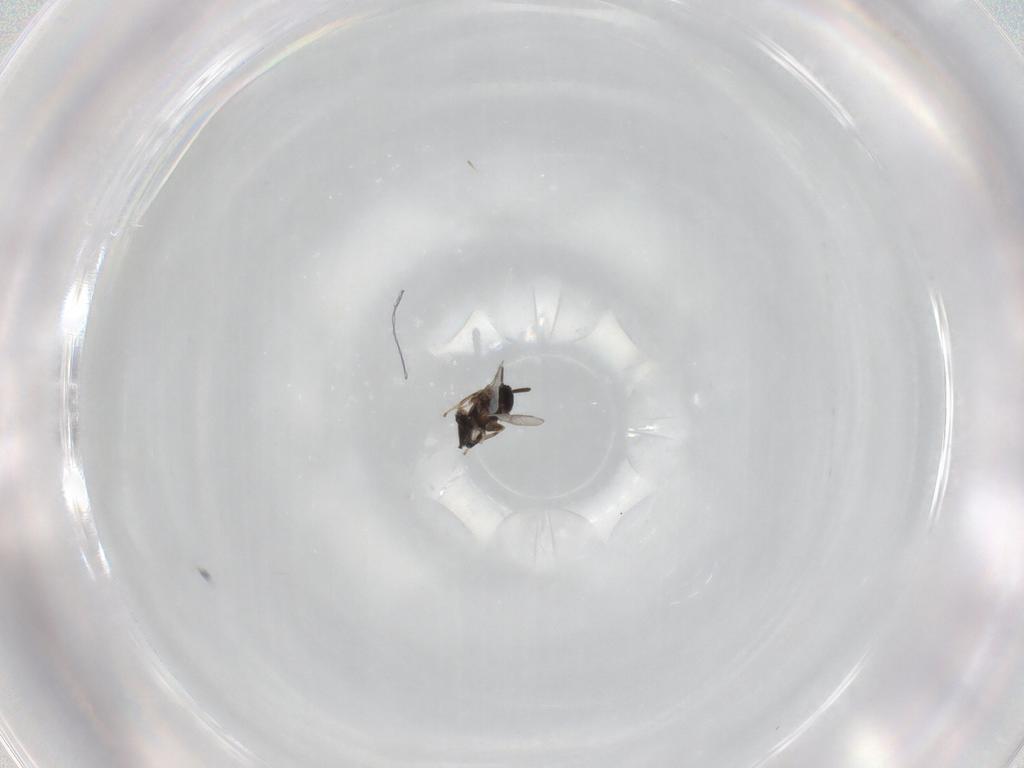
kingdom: Animalia
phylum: Arthropoda
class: Insecta
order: Diptera
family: Scatopsidae
